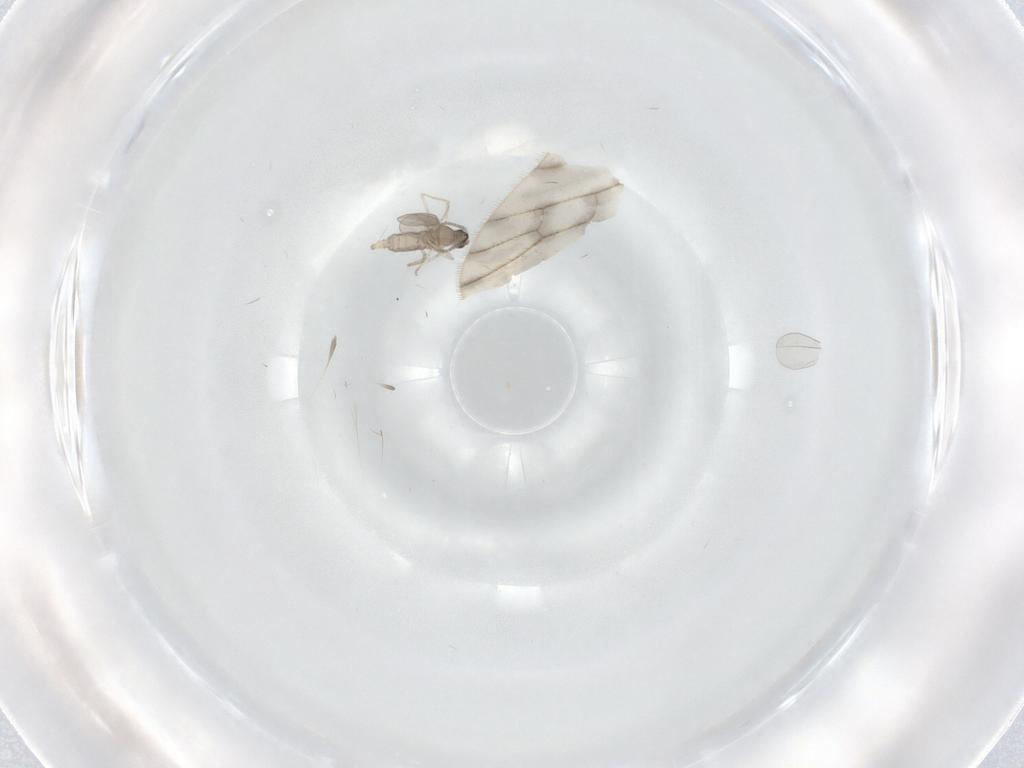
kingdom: Animalia
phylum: Arthropoda
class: Insecta
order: Diptera
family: Limoniidae
